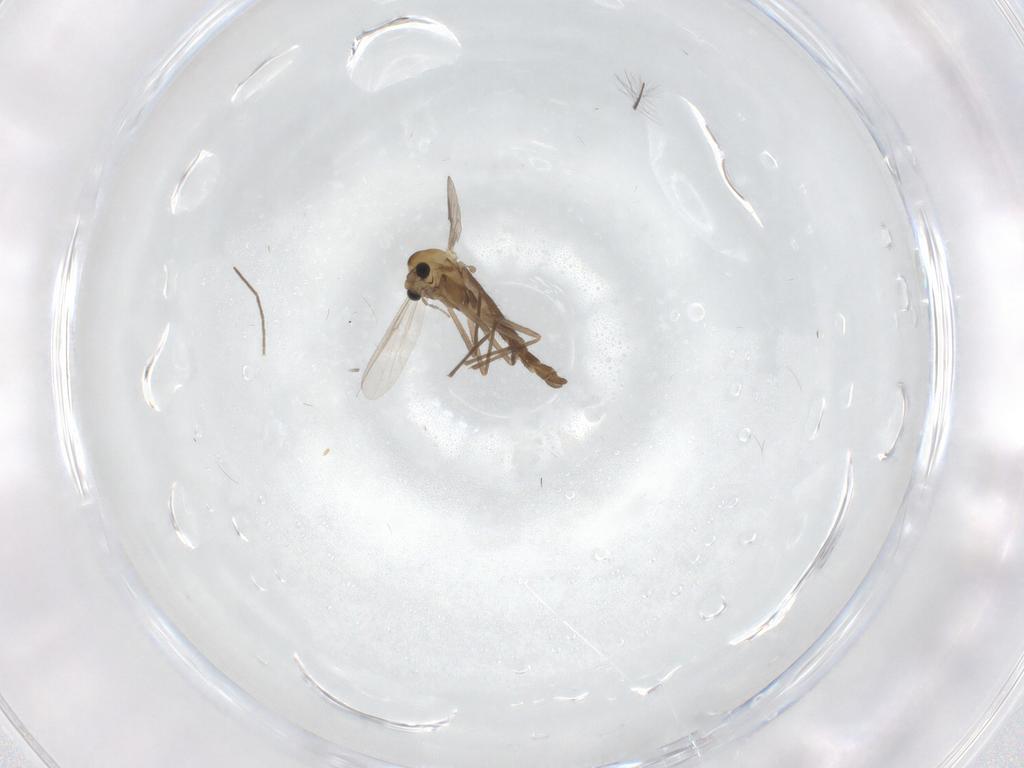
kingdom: Animalia
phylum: Arthropoda
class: Insecta
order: Diptera
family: Chironomidae
